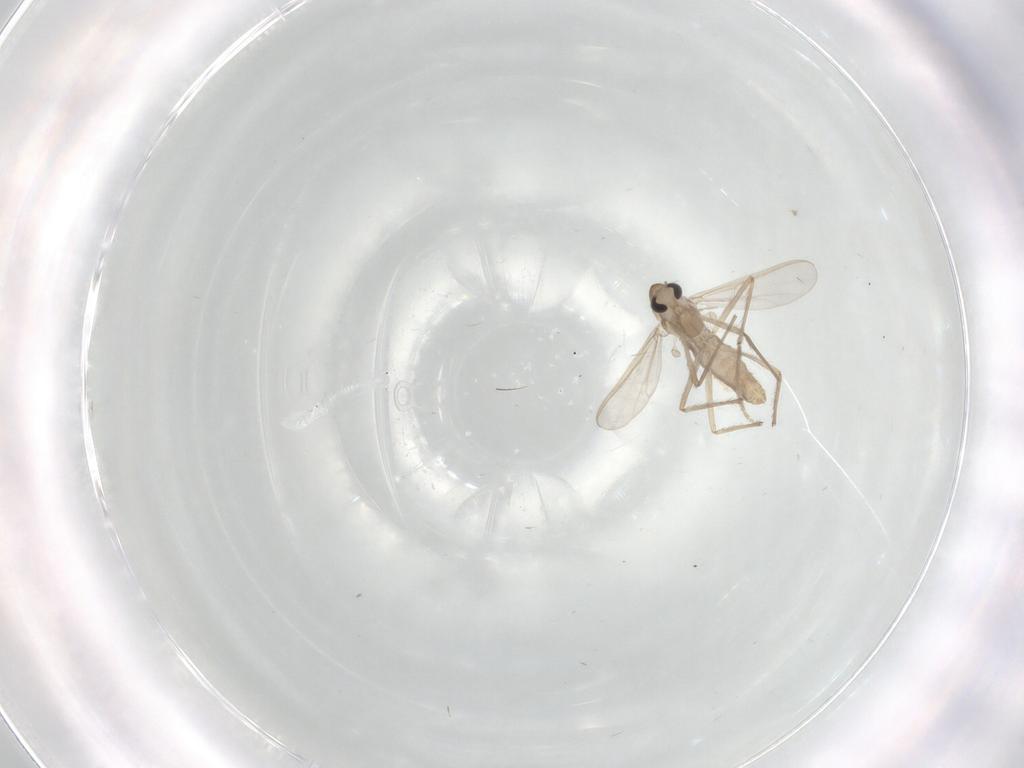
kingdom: Animalia
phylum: Arthropoda
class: Insecta
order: Diptera
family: Chironomidae
